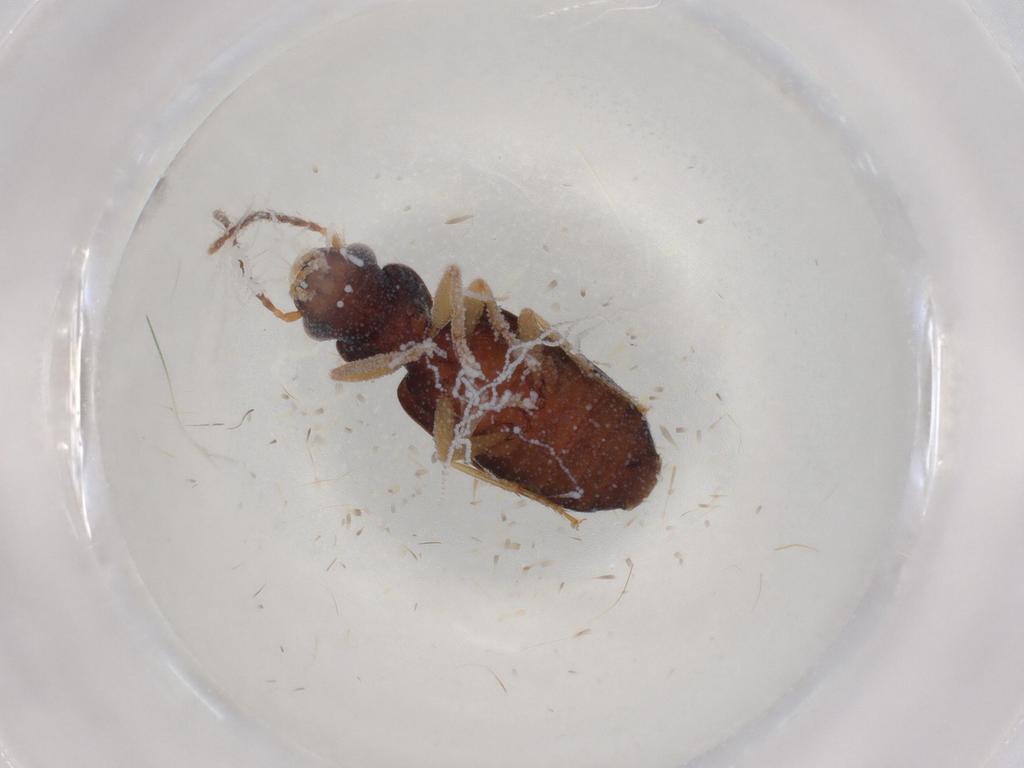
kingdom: Animalia
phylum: Arthropoda
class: Insecta
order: Coleoptera
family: Carabidae
